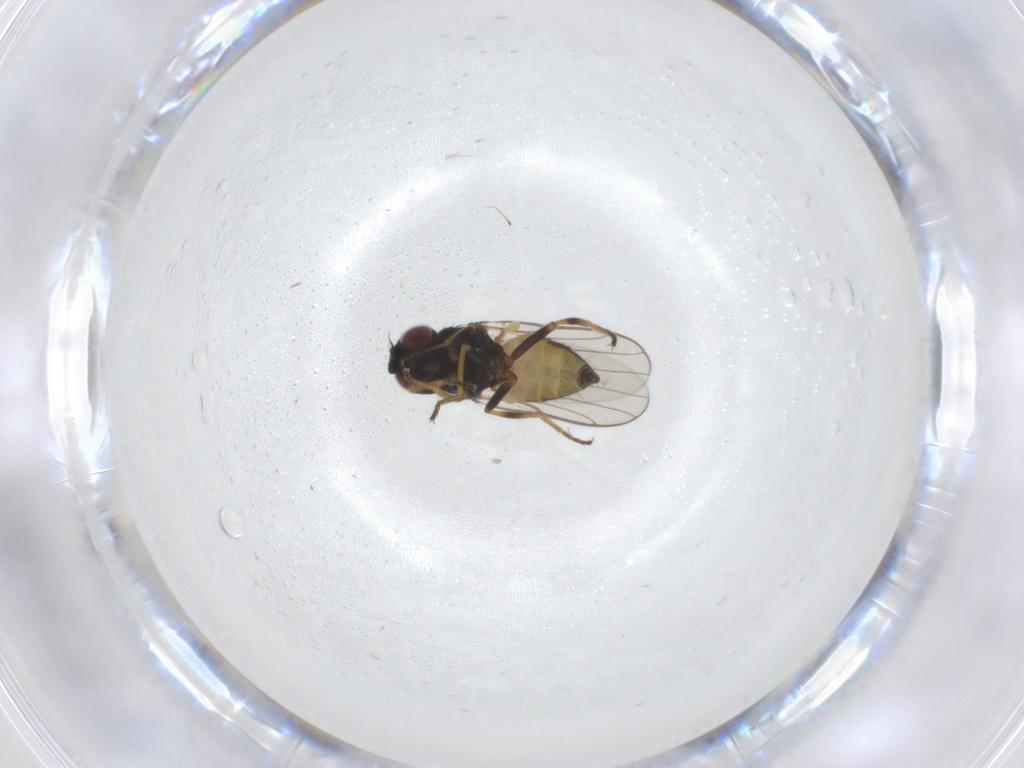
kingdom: Animalia
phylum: Arthropoda
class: Insecta
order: Diptera
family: Chloropidae
